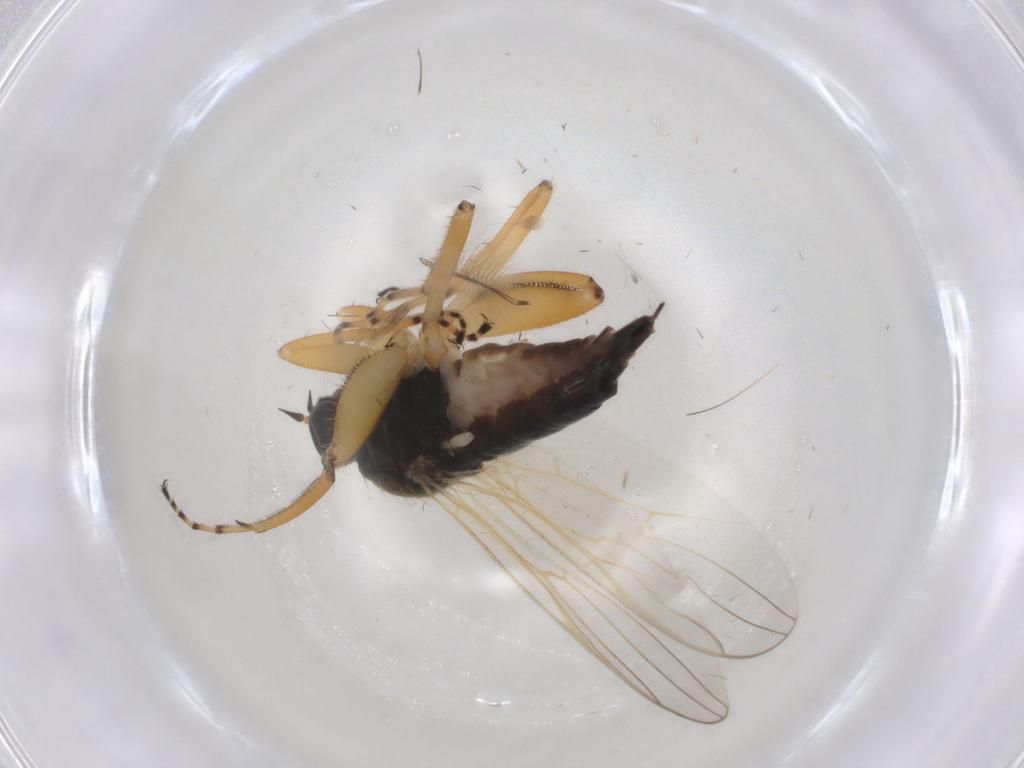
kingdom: Animalia
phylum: Arthropoda
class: Insecta
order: Diptera
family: Hybotidae
